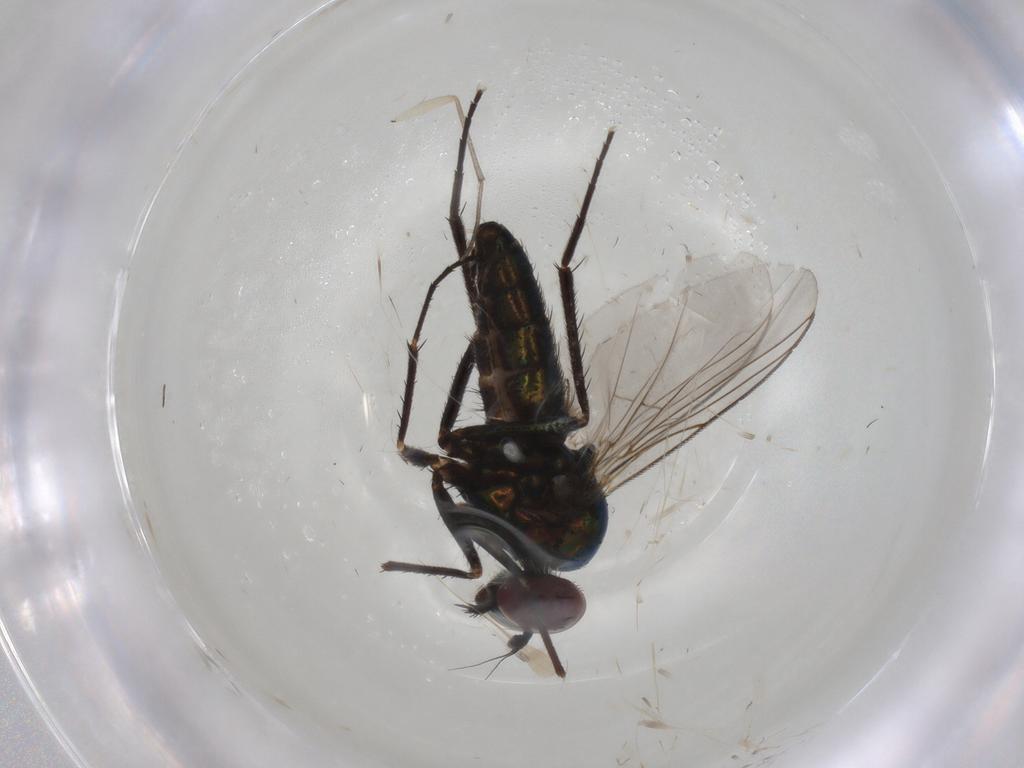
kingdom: Animalia
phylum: Arthropoda
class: Insecta
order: Diptera
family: Dolichopodidae
